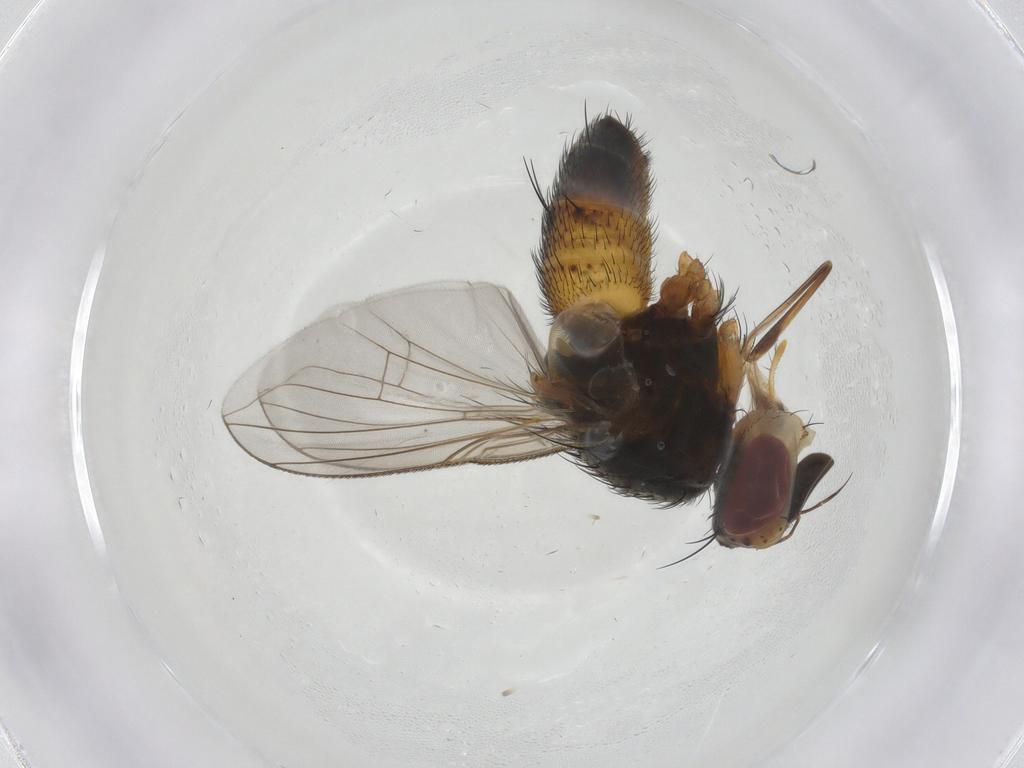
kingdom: Animalia
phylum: Arthropoda
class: Insecta
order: Diptera
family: Tachinidae
